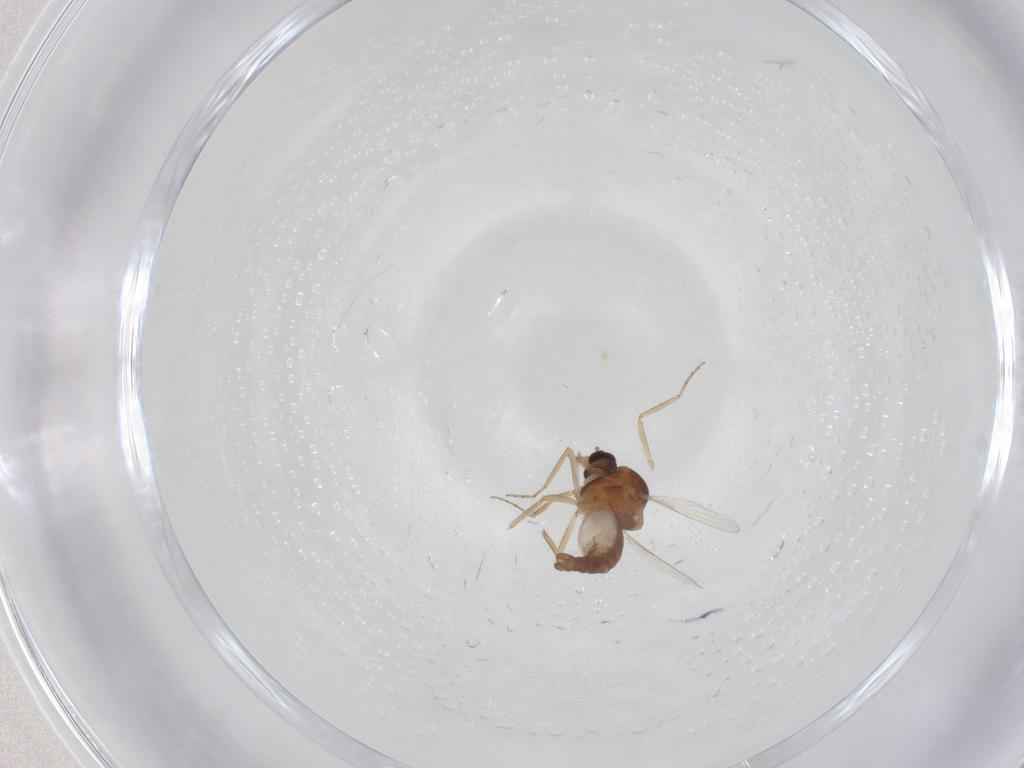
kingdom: Animalia
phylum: Arthropoda
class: Insecta
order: Diptera
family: Ceratopogonidae
